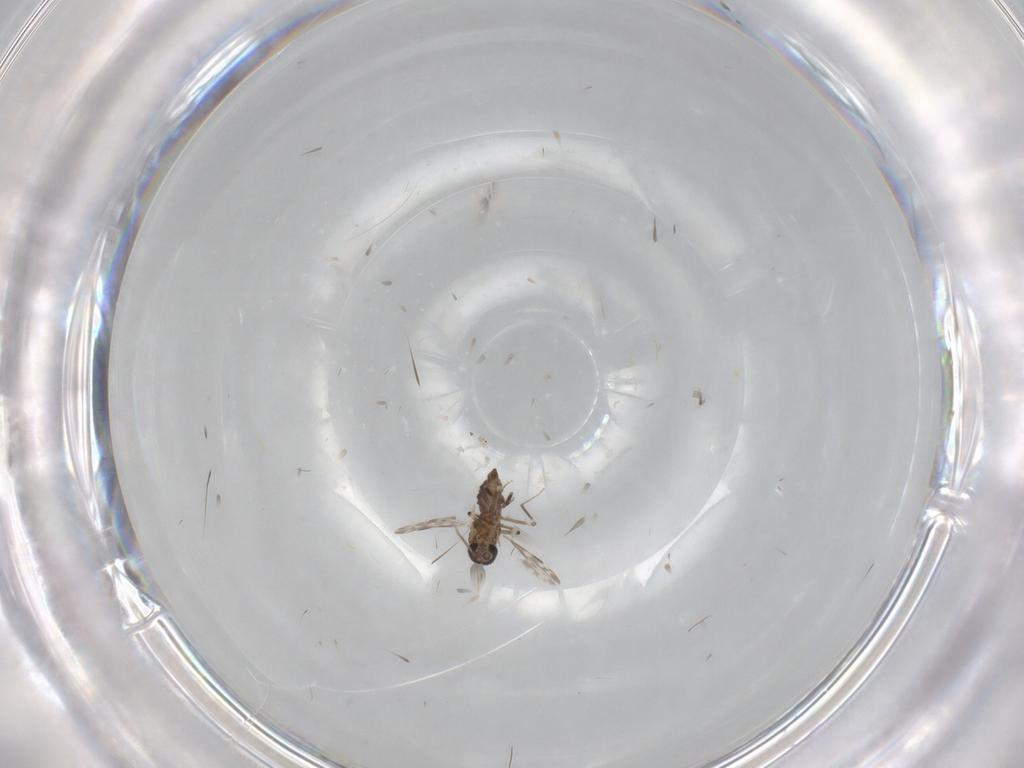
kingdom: Animalia
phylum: Arthropoda
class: Insecta
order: Diptera
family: Ceratopogonidae
